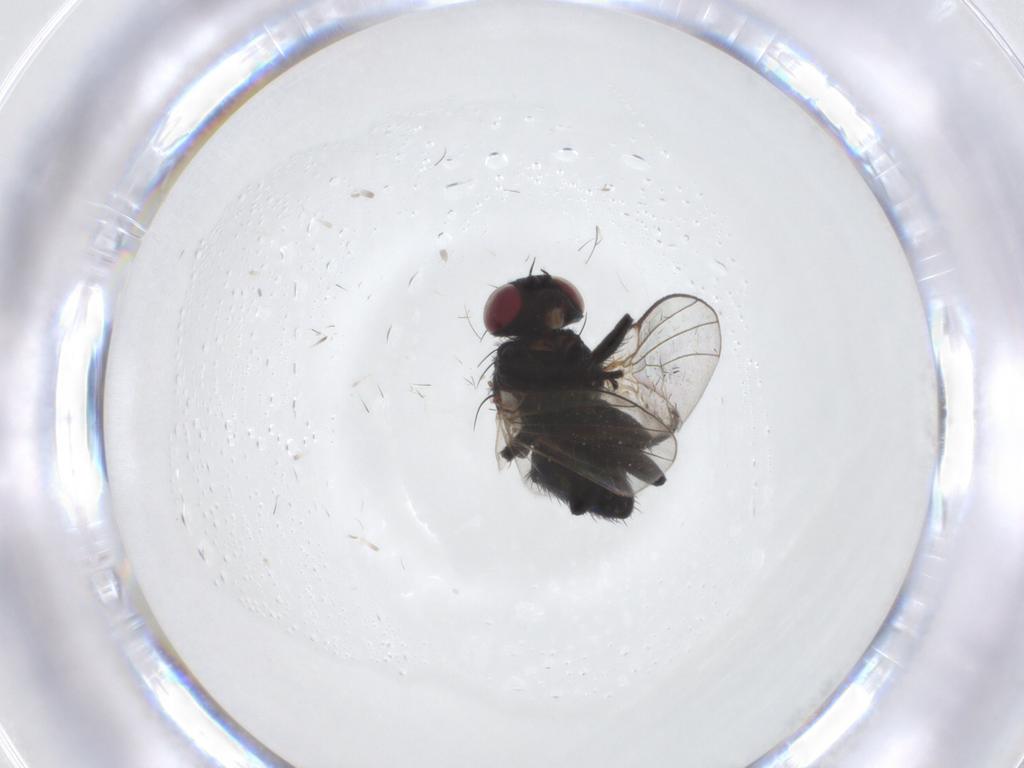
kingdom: Animalia
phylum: Arthropoda
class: Insecta
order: Diptera
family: Agromyzidae
